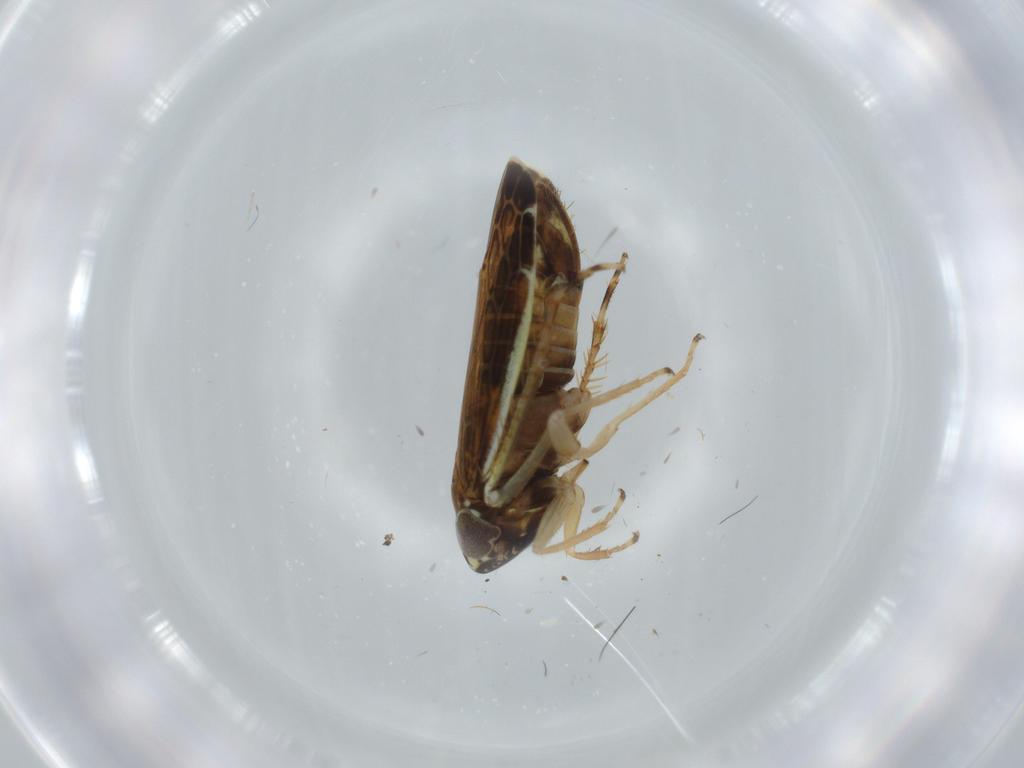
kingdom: Animalia
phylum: Arthropoda
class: Insecta
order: Hemiptera
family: Cicadellidae
